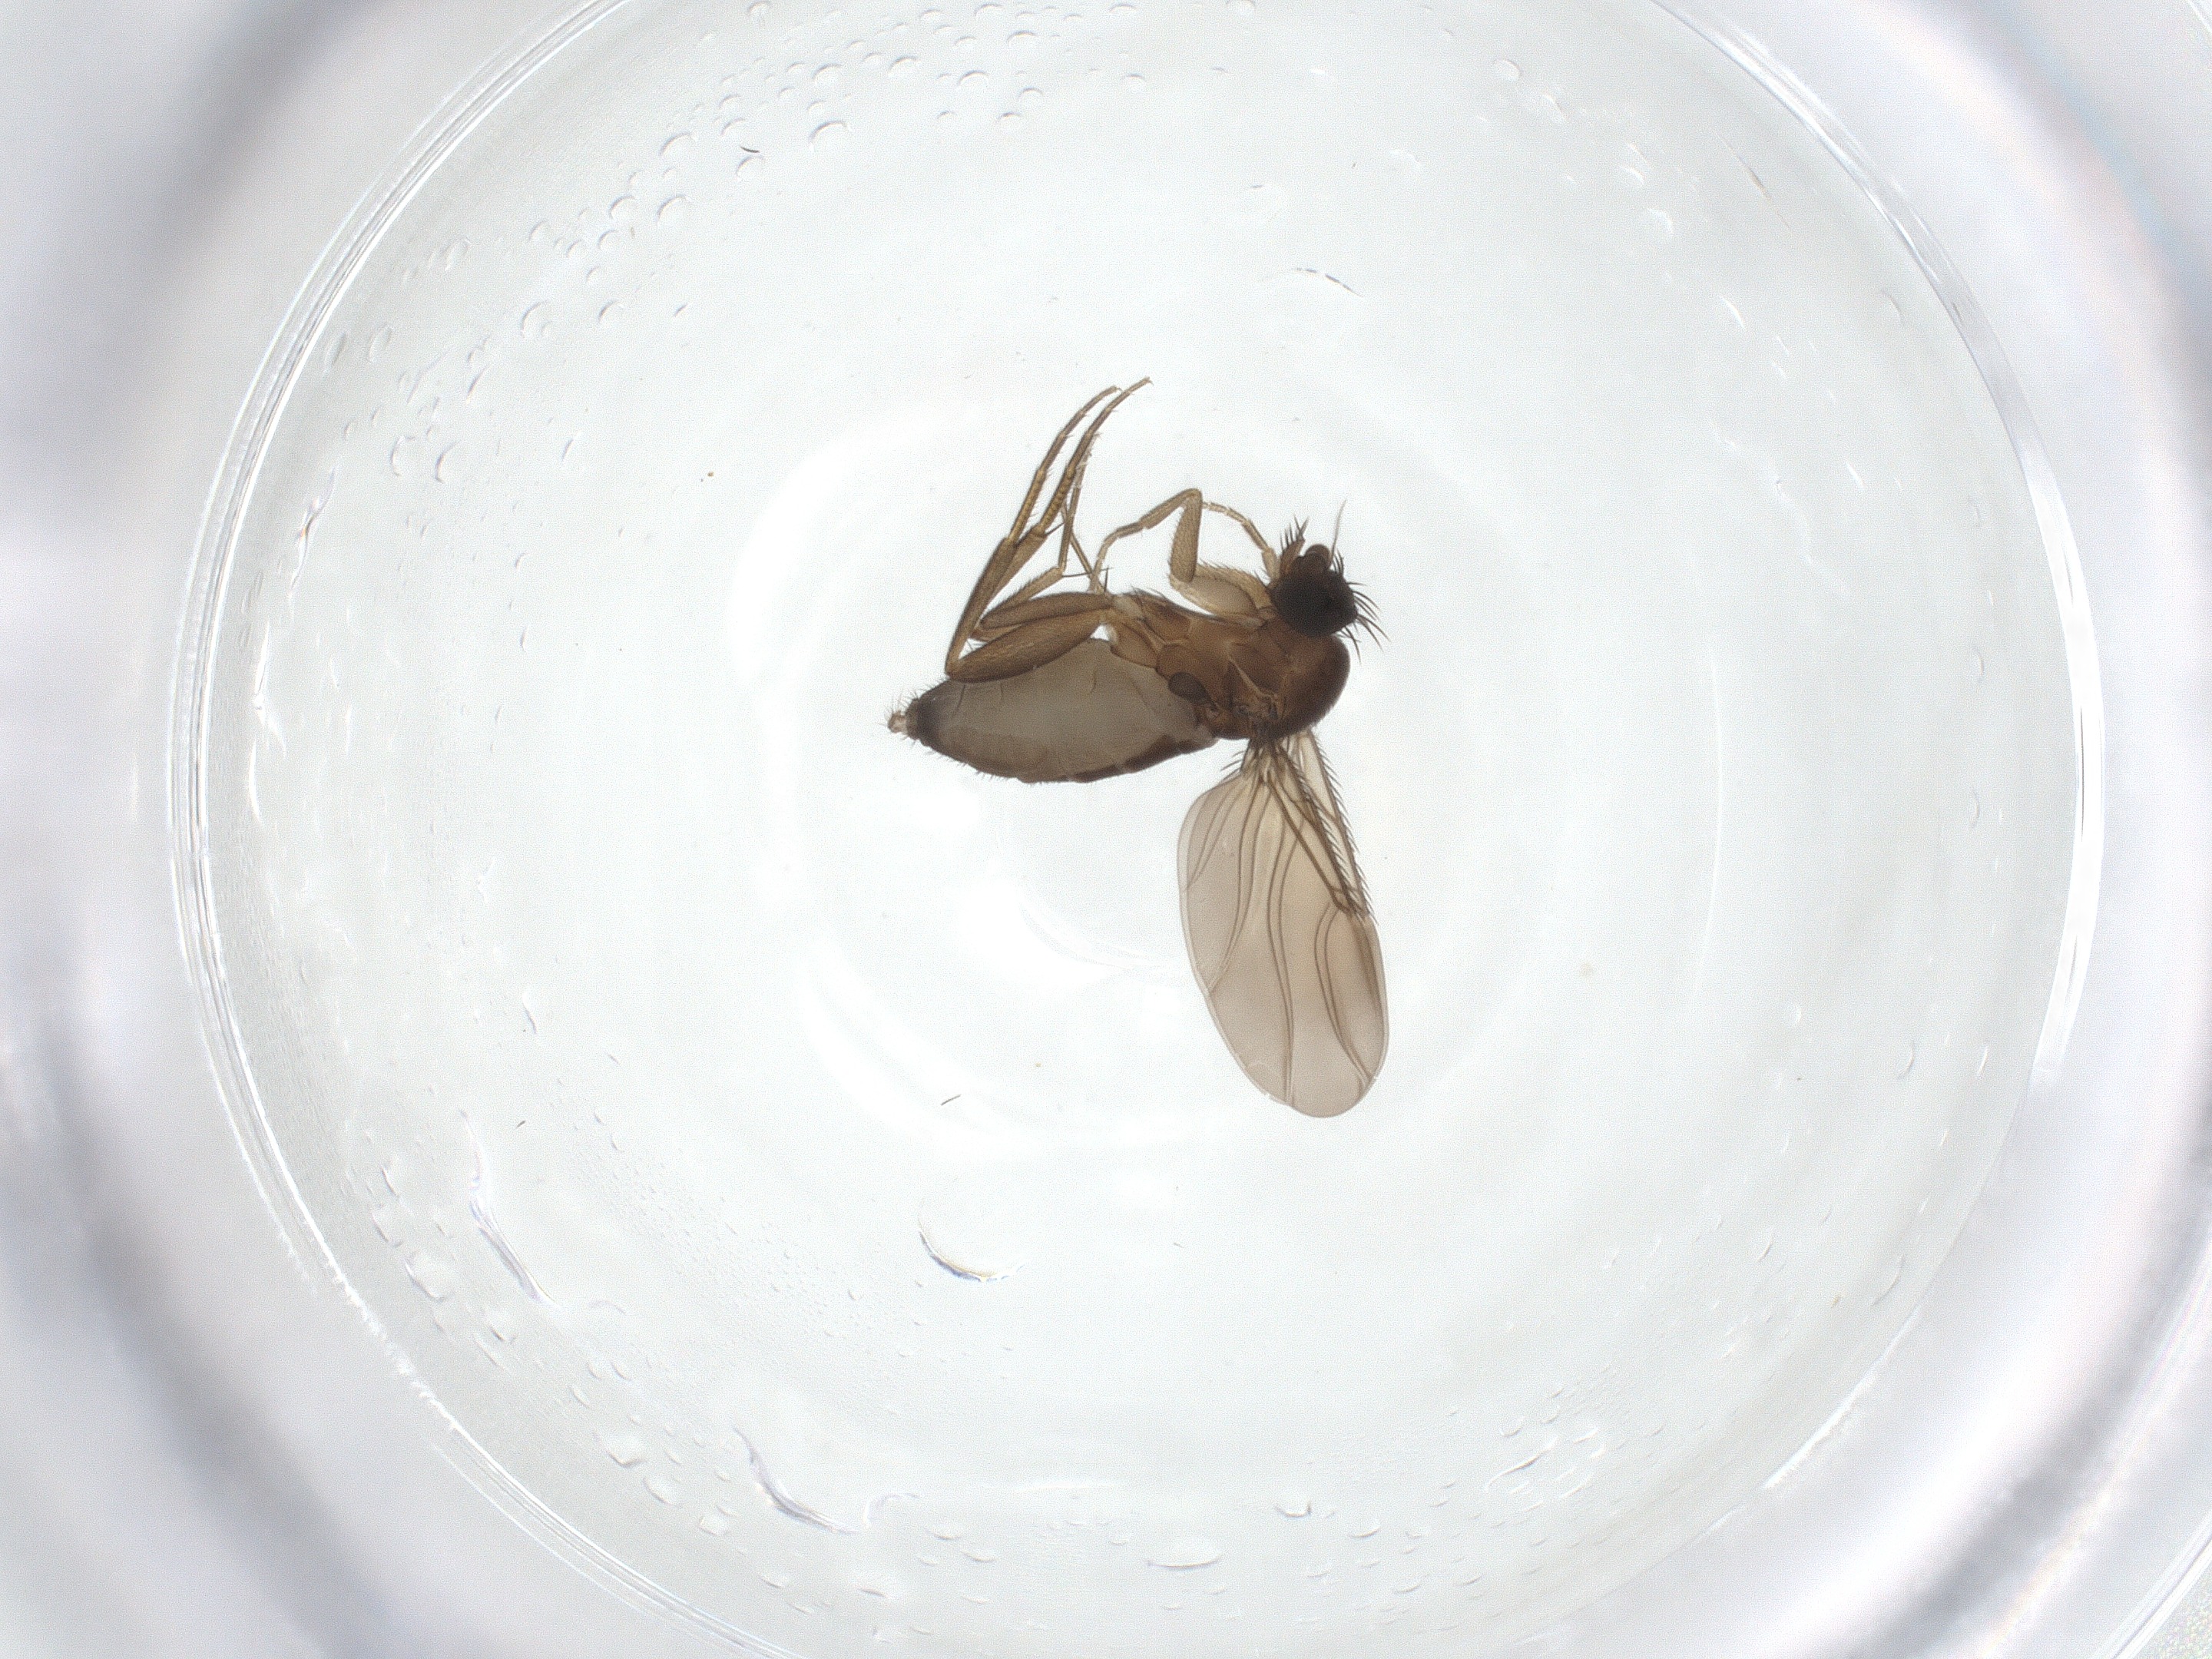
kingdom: Animalia
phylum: Arthropoda
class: Insecta
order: Diptera
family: Phoridae
